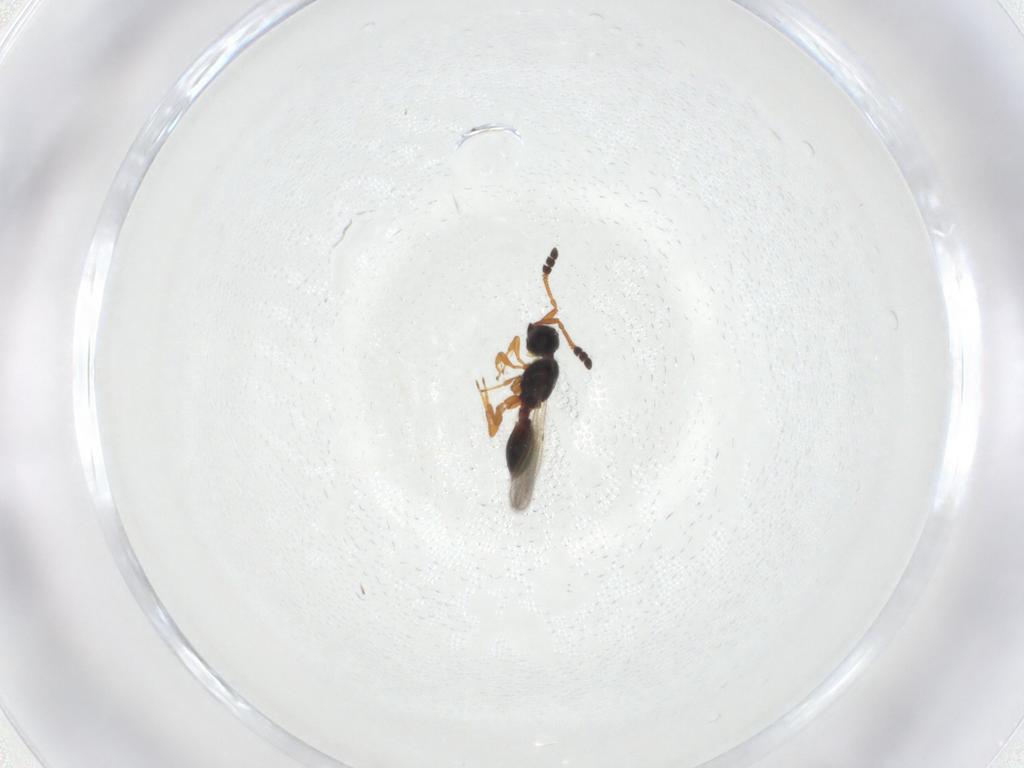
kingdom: Animalia
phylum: Arthropoda
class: Insecta
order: Hymenoptera
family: Diapriidae
